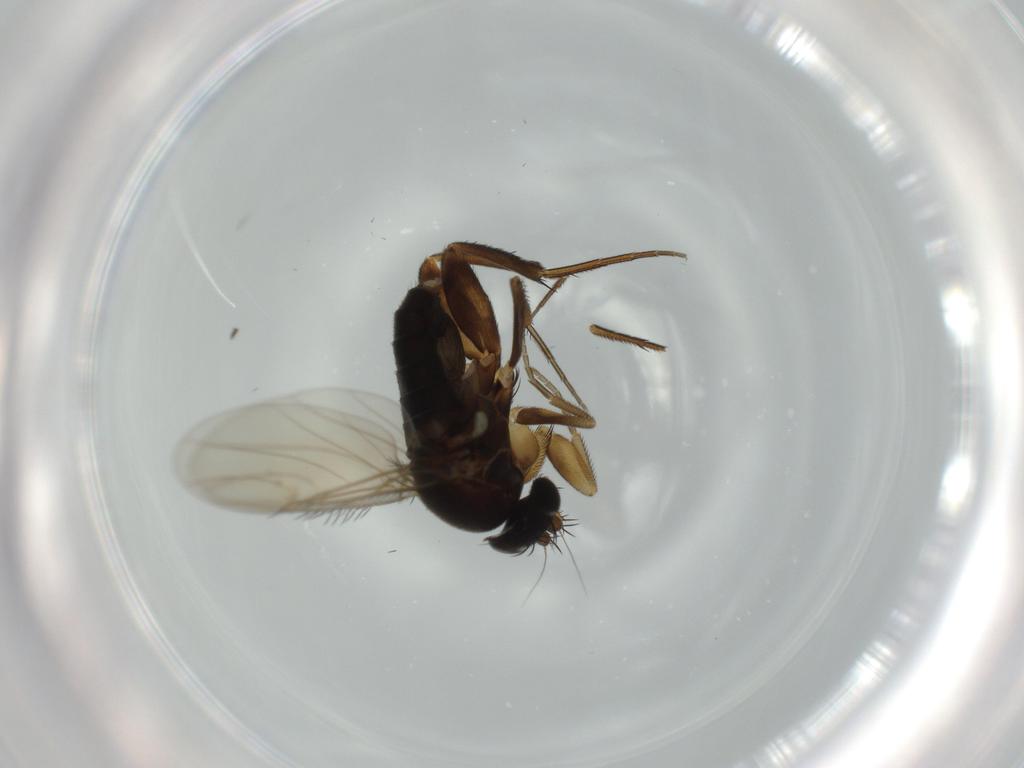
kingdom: Animalia
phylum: Arthropoda
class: Insecta
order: Diptera
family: Phoridae
